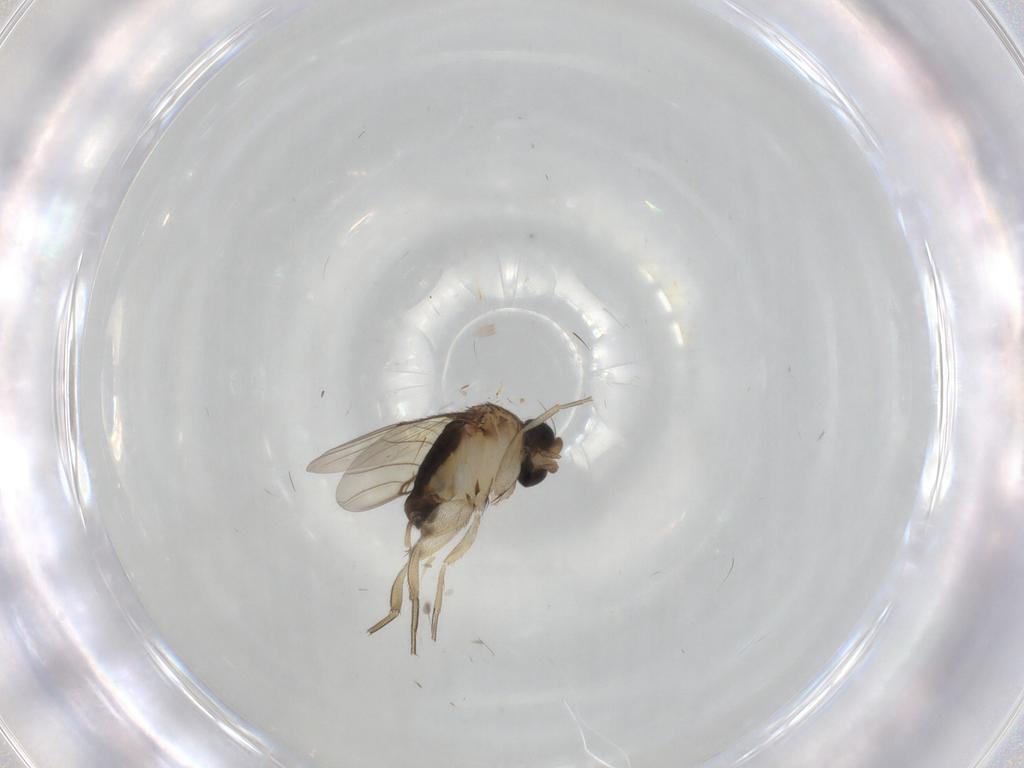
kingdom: Animalia
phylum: Arthropoda
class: Insecta
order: Diptera
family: Phoridae
